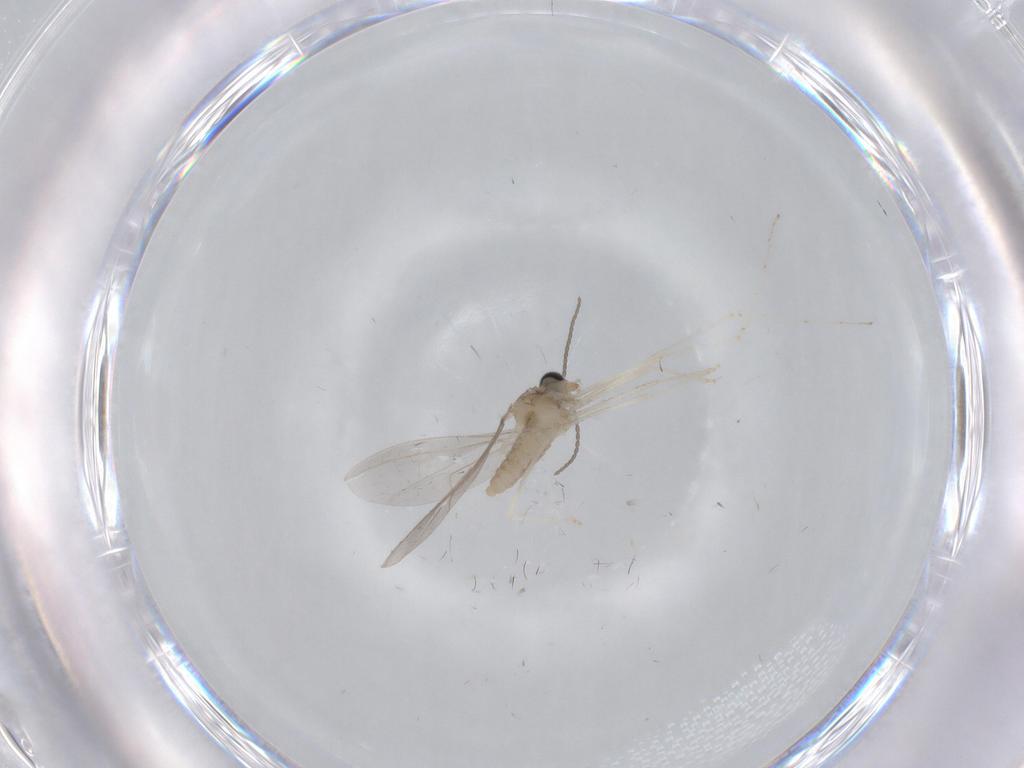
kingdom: Animalia
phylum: Arthropoda
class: Insecta
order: Diptera
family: Cecidomyiidae
